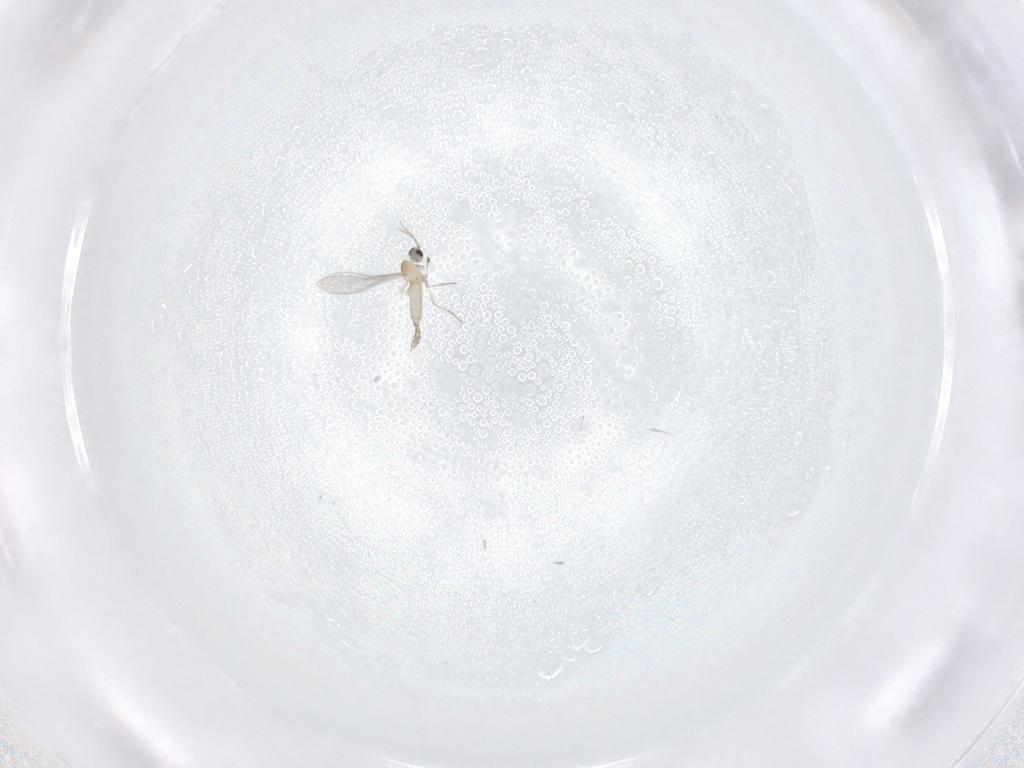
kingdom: Animalia
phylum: Arthropoda
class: Insecta
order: Diptera
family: Cecidomyiidae
